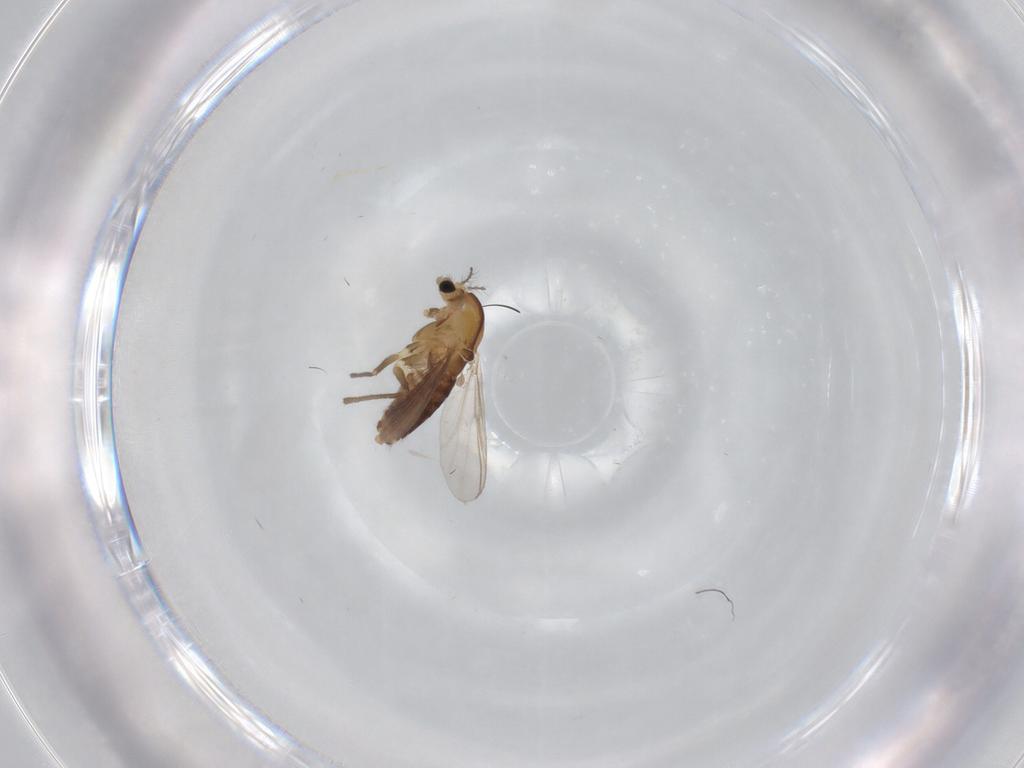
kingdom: Animalia
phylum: Arthropoda
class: Insecta
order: Diptera
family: Chironomidae
